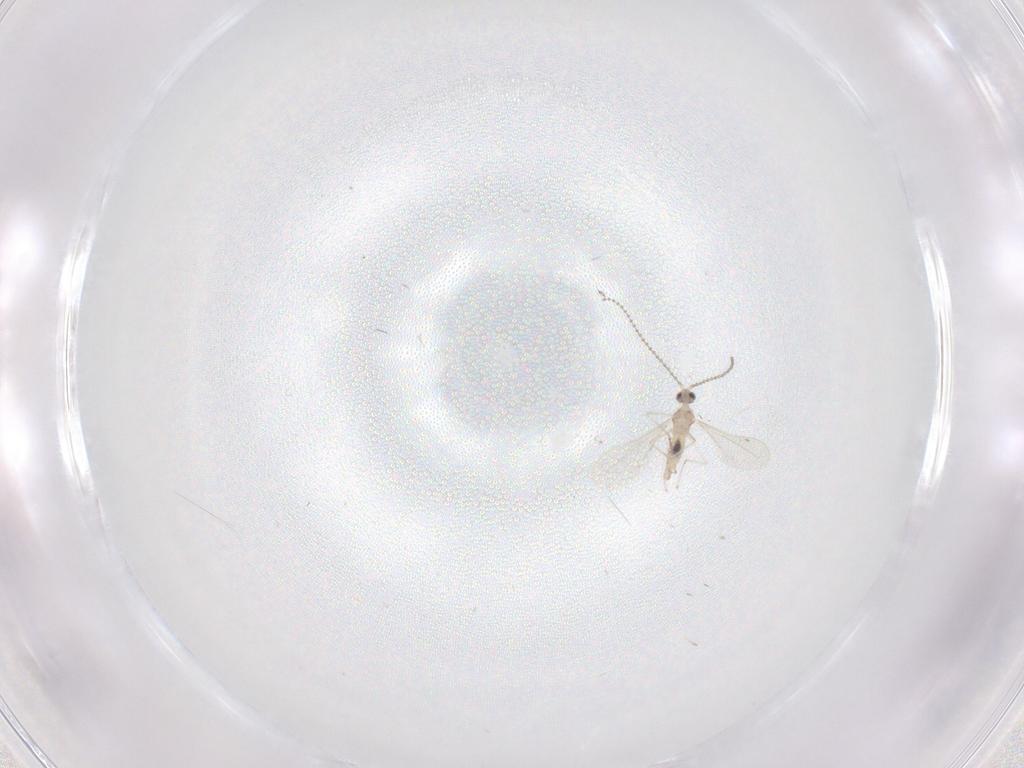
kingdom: Animalia
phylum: Arthropoda
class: Insecta
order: Diptera
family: Cecidomyiidae
